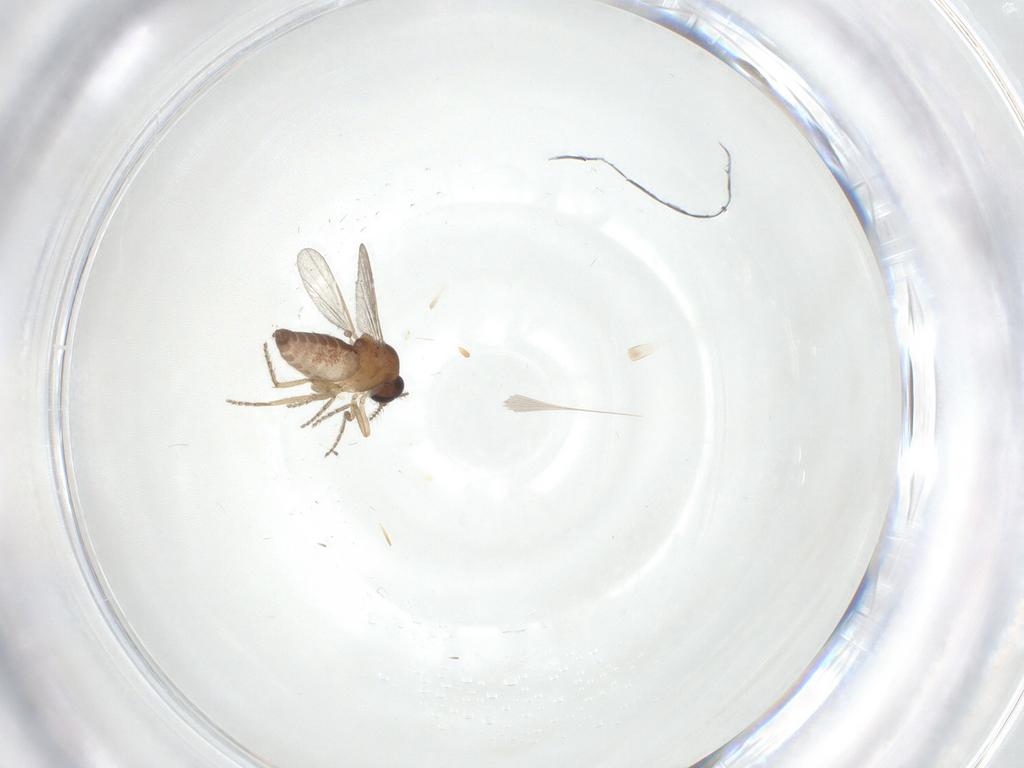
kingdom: Animalia
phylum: Arthropoda
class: Insecta
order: Diptera
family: Ceratopogonidae
